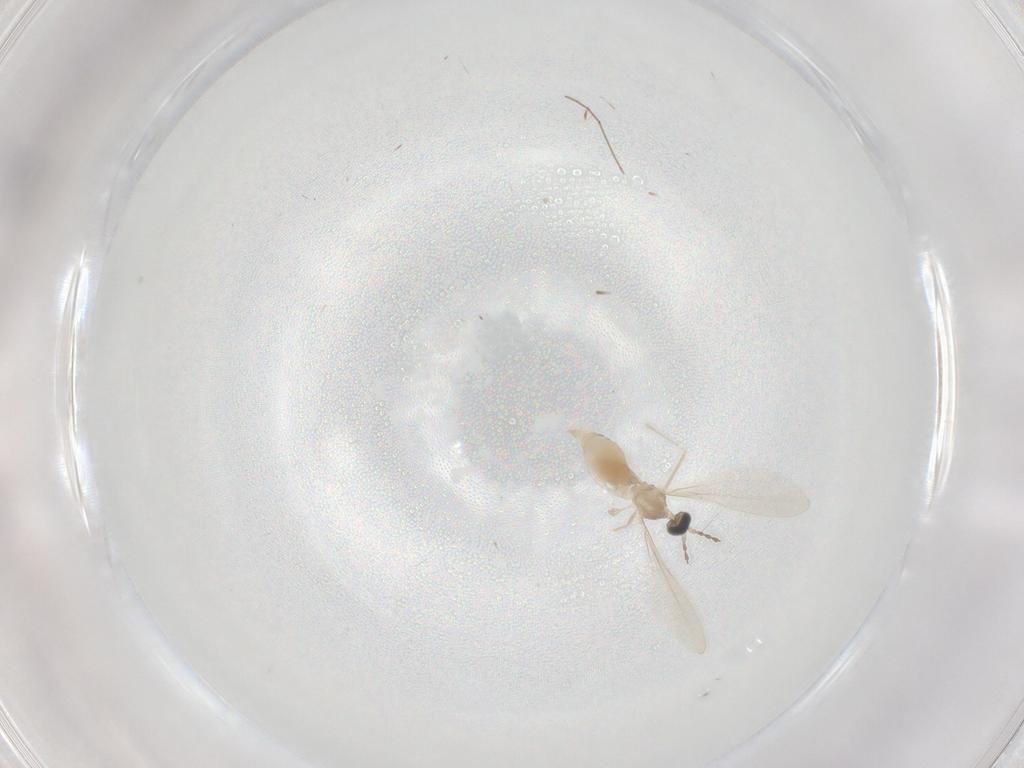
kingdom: Animalia
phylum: Arthropoda
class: Insecta
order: Diptera
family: Cecidomyiidae
